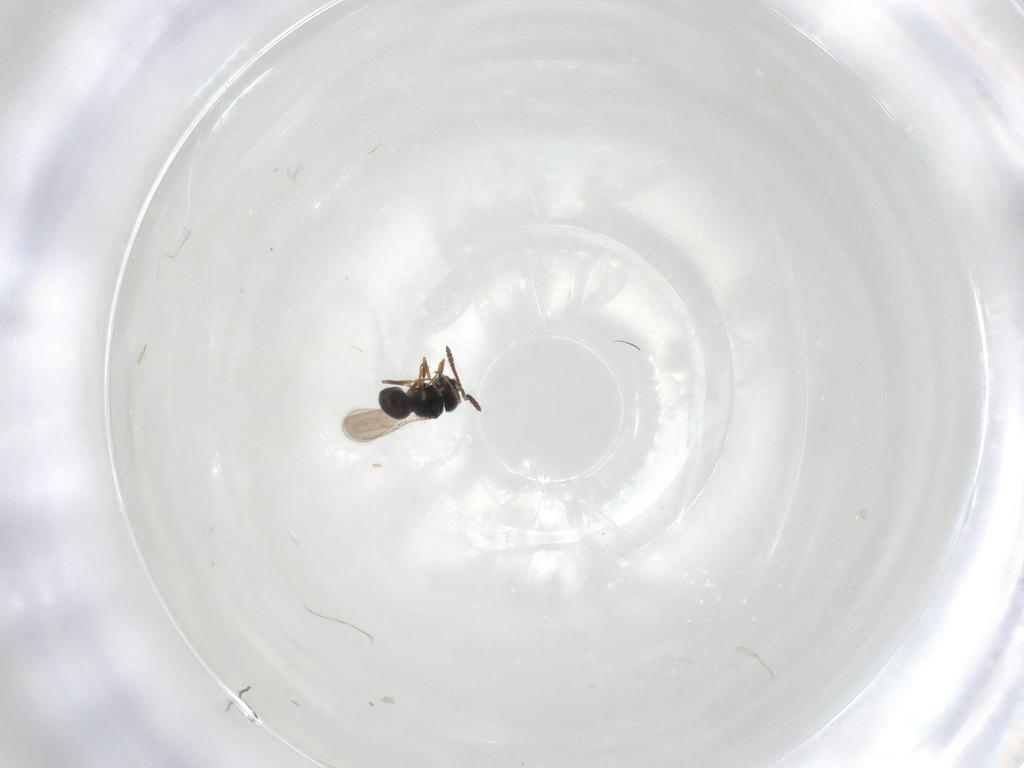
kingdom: Animalia
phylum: Arthropoda
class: Insecta
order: Hymenoptera
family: Scelionidae
